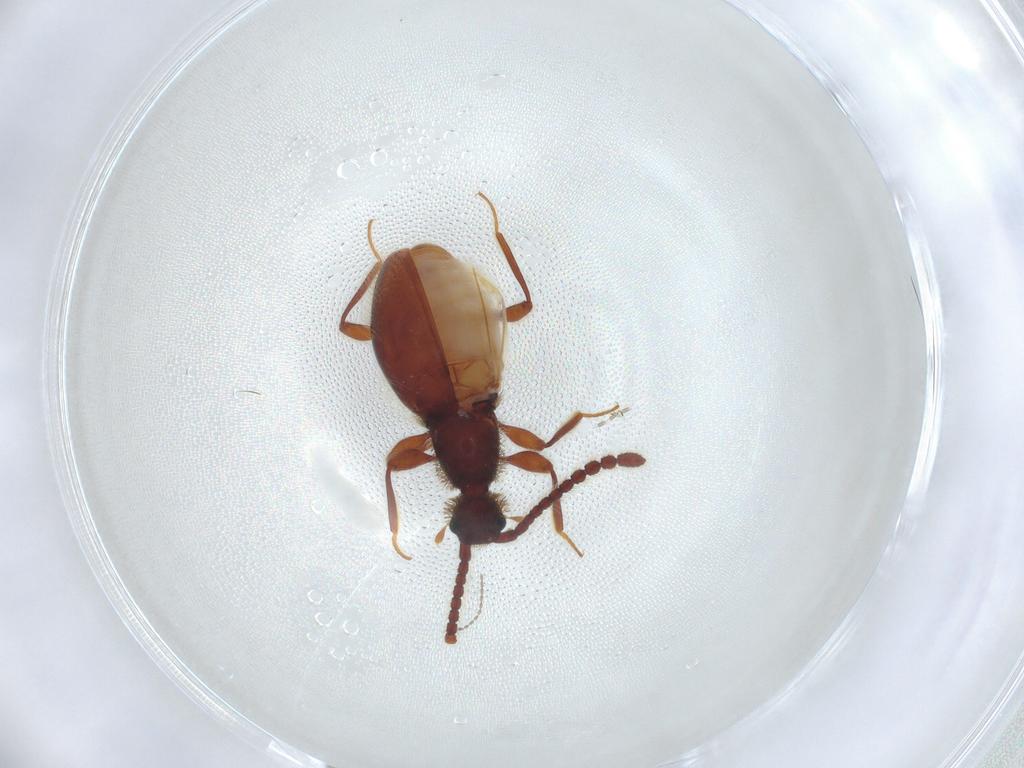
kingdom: Animalia
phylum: Arthropoda
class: Insecta
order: Coleoptera
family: Staphylinidae
